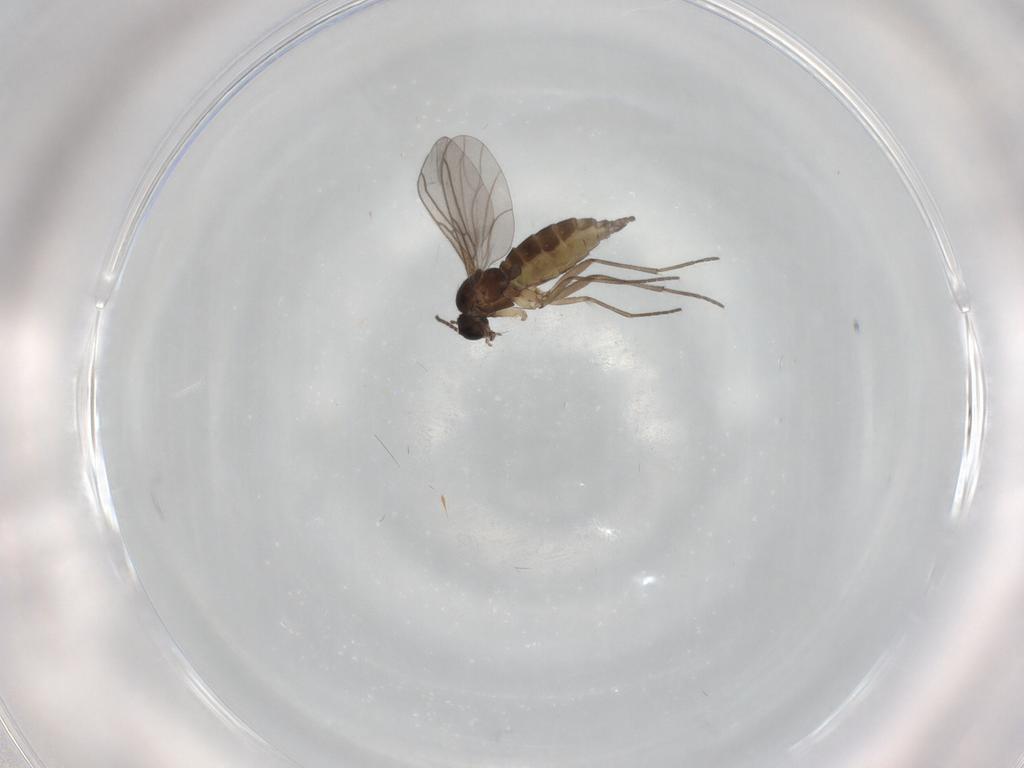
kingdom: Animalia
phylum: Arthropoda
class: Insecta
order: Diptera
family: Sciaridae
